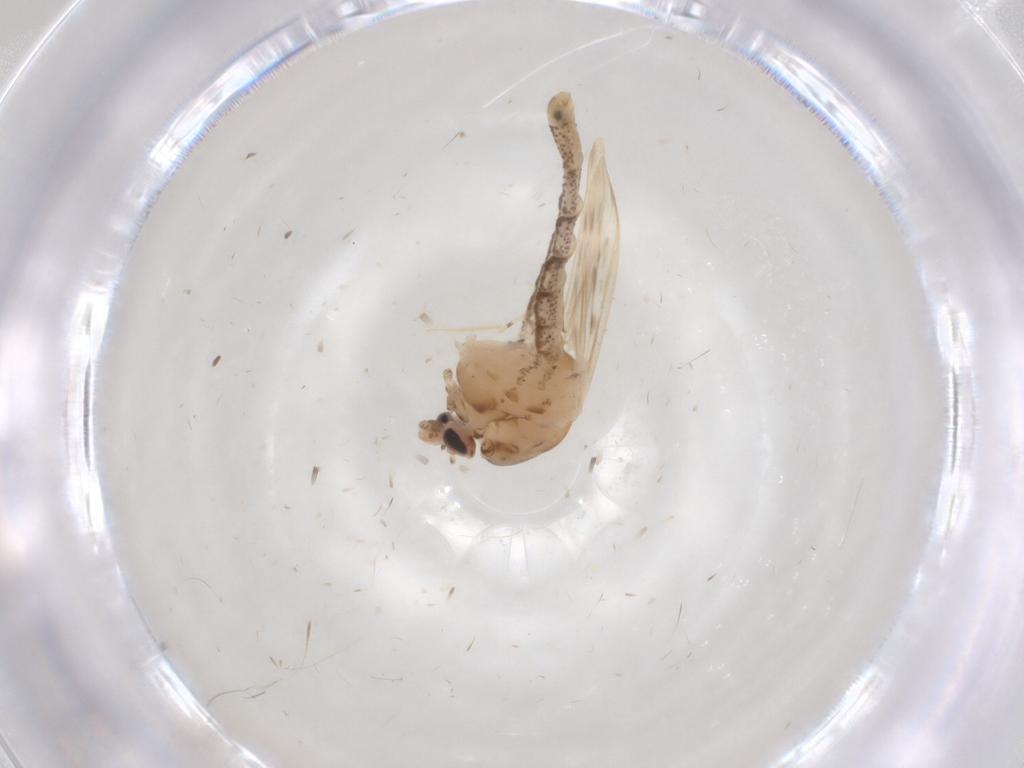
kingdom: Animalia
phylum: Arthropoda
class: Insecta
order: Diptera
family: Chaoboridae
